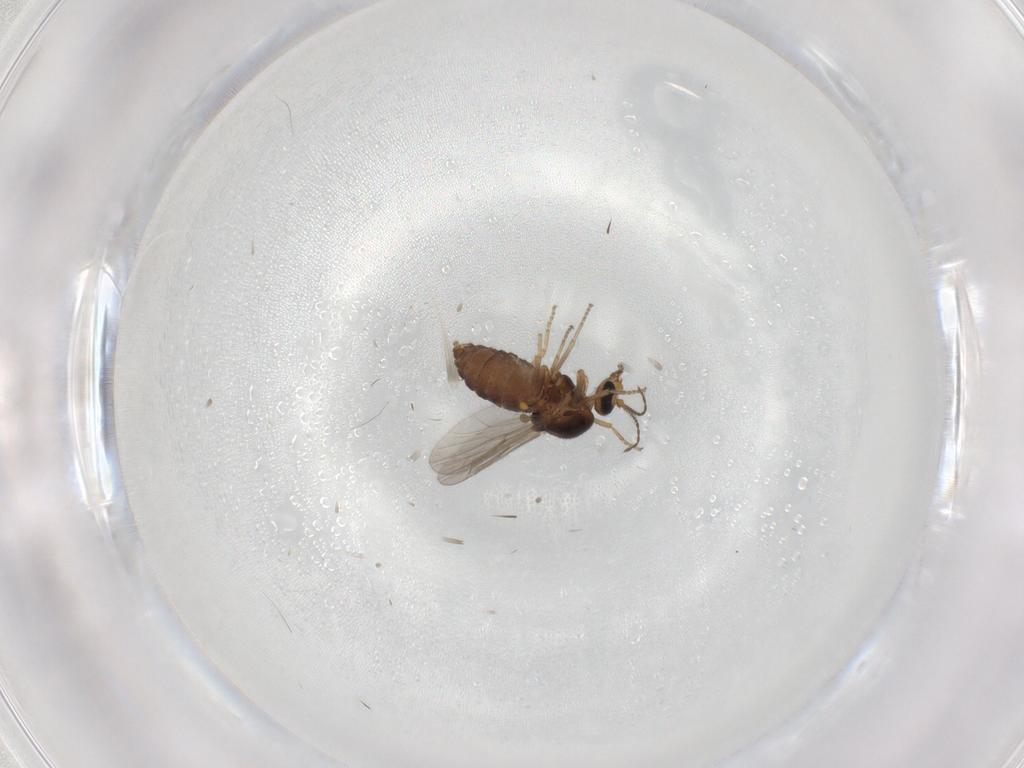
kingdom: Animalia
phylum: Arthropoda
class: Insecta
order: Diptera
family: Ceratopogonidae
